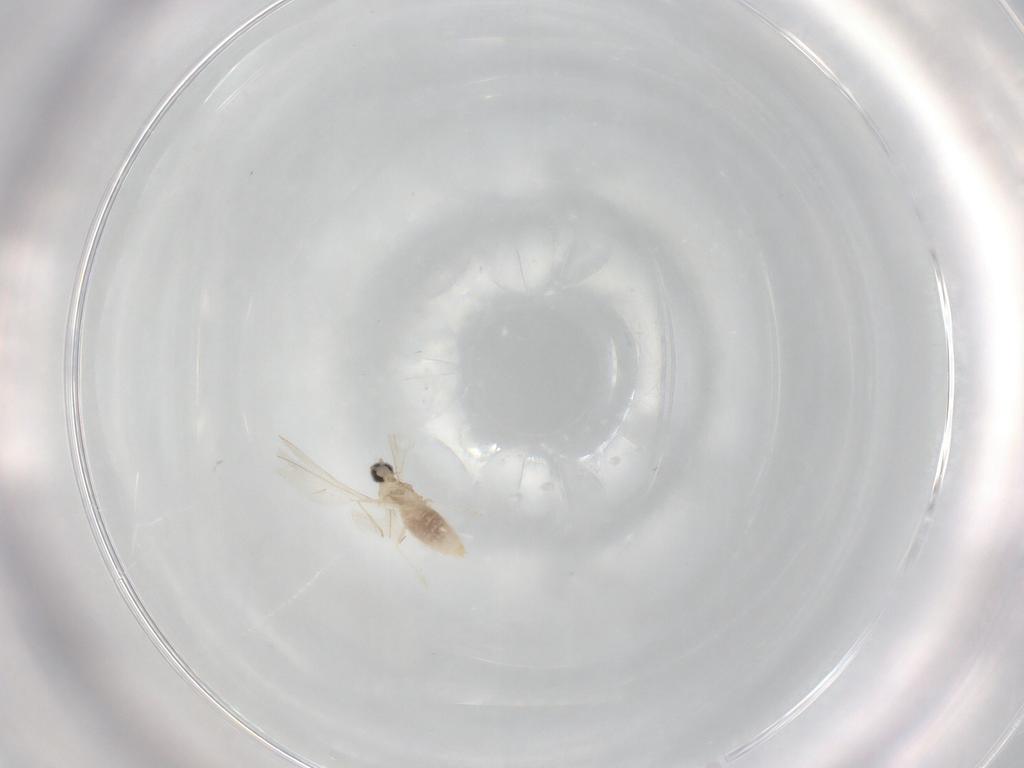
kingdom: Animalia
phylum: Arthropoda
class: Insecta
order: Diptera
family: Cecidomyiidae
